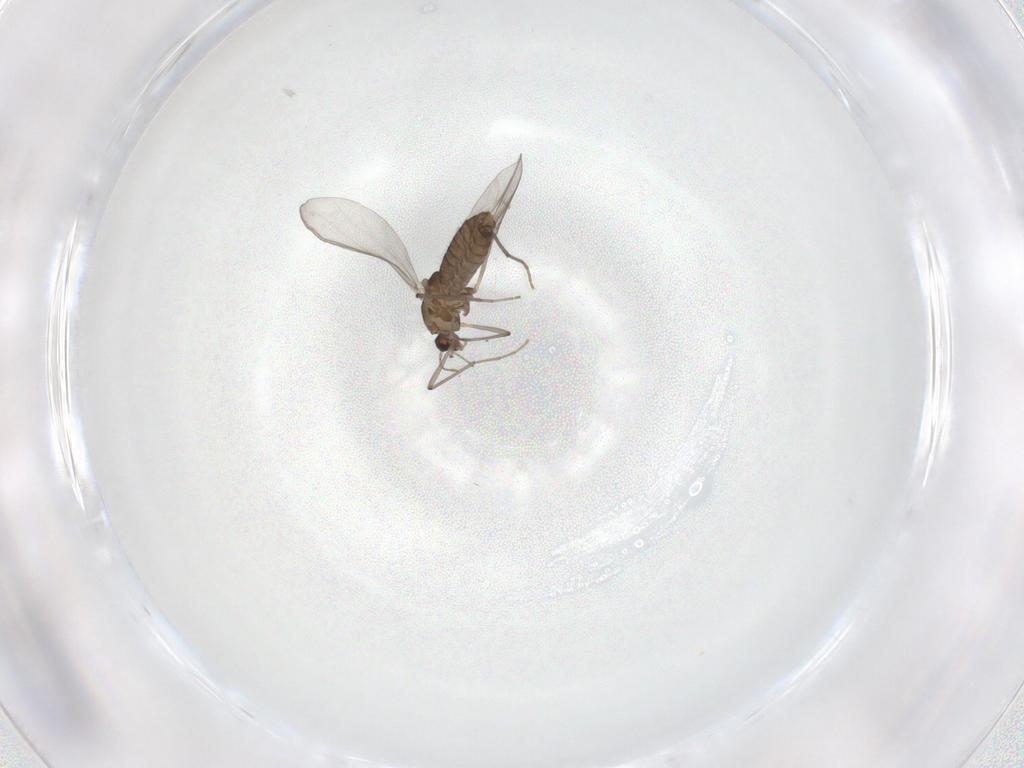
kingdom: Animalia
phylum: Arthropoda
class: Insecta
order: Diptera
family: Chironomidae
